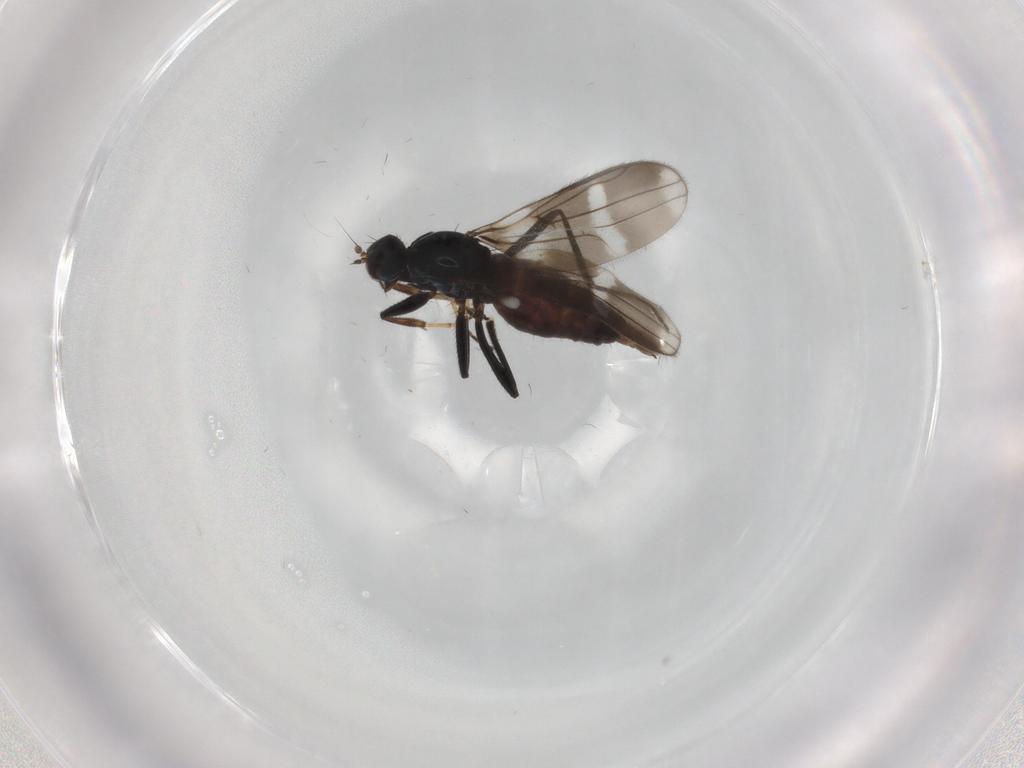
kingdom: Animalia
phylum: Arthropoda
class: Insecta
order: Diptera
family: Hybotidae
